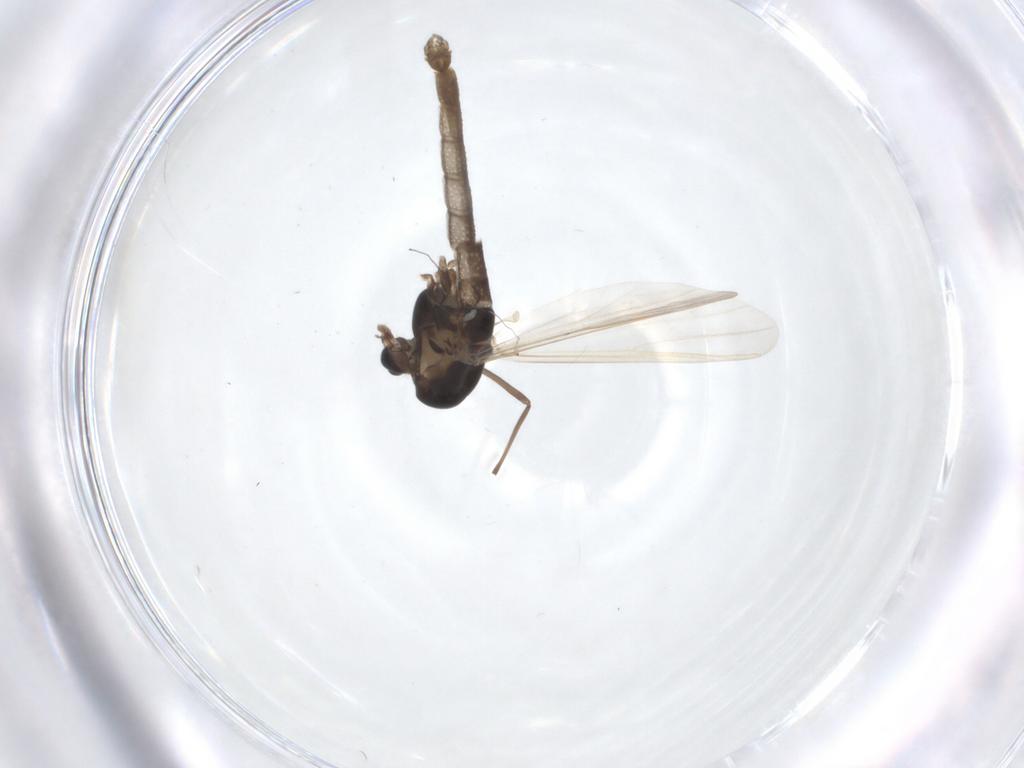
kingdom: Animalia
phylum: Arthropoda
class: Insecta
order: Diptera
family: Chironomidae
